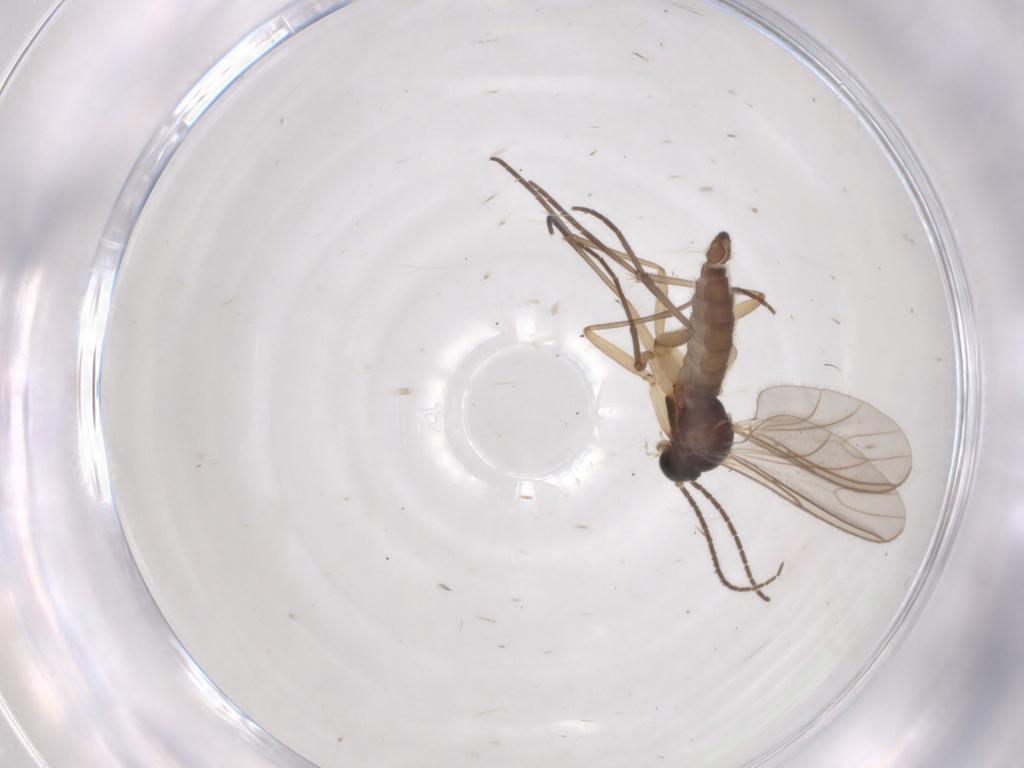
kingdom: Animalia
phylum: Arthropoda
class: Insecta
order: Diptera
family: Sciaridae
